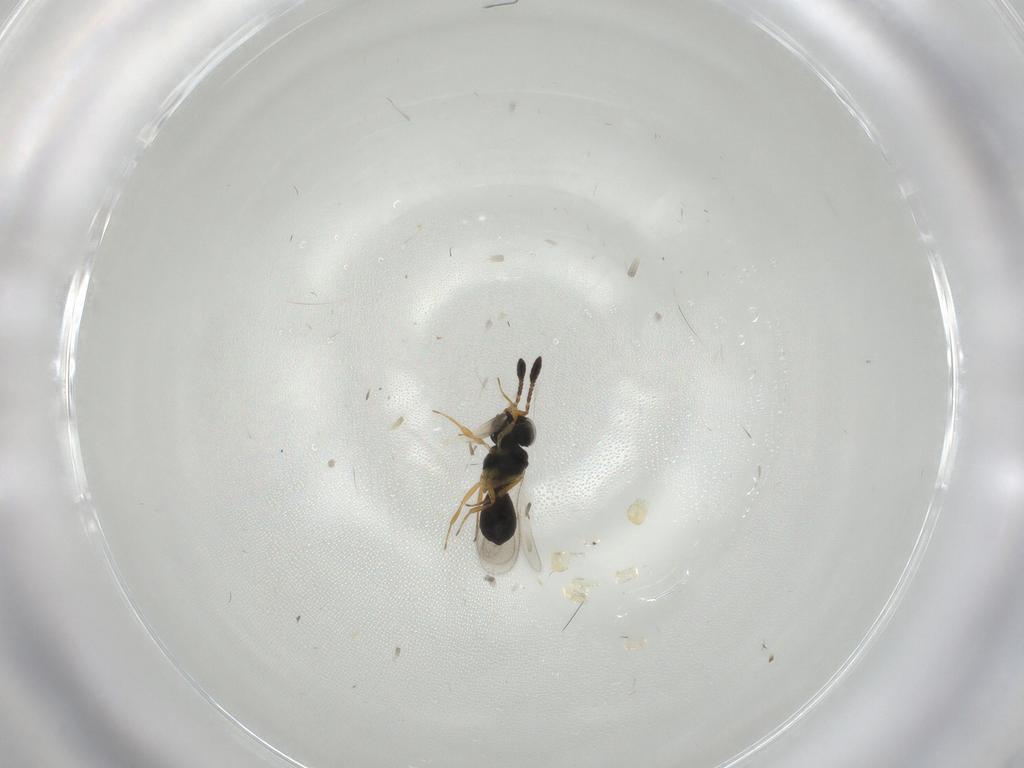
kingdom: Animalia
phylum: Arthropoda
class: Insecta
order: Hymenoptera
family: Scelionidae
